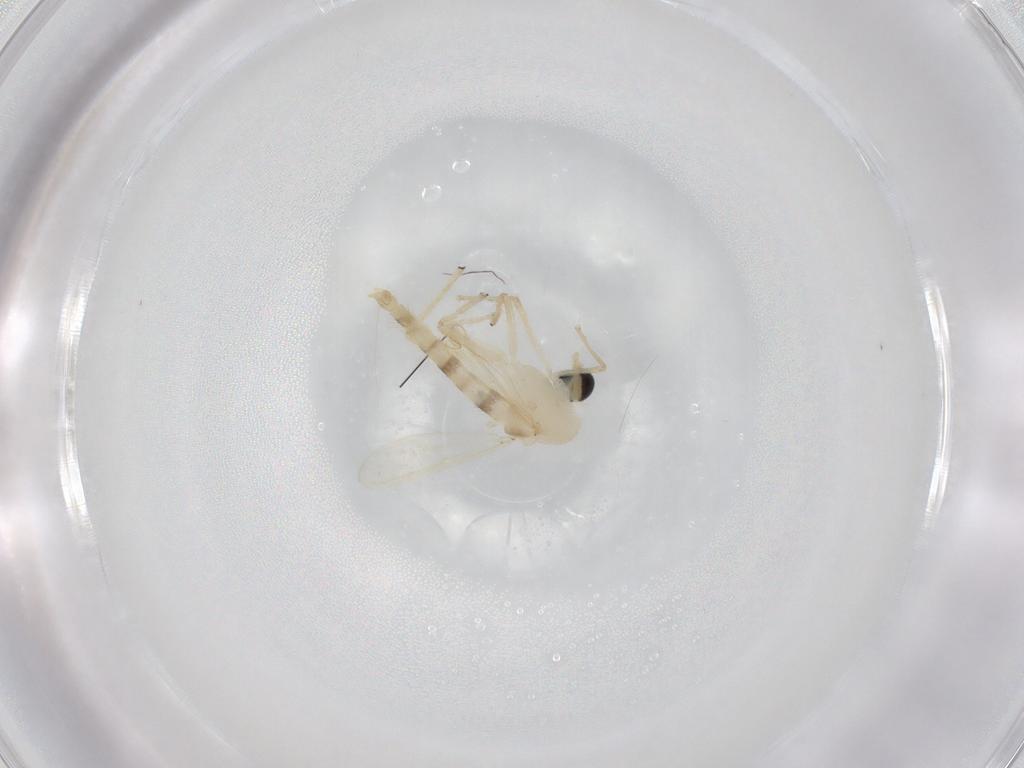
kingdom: Animalia
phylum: Arthropoda
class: Insecta
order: Diptera
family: Chironomidae
